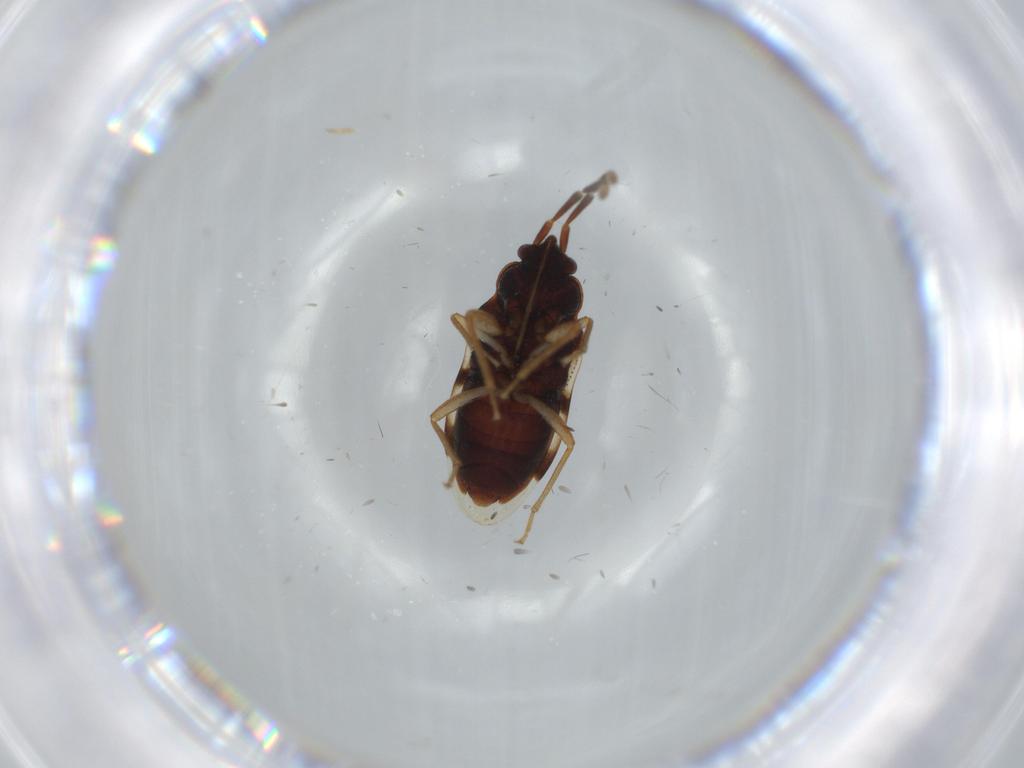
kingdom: Animalia
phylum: Arthropoda
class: Insecta
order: Hemiptera
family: Rhyparochromidae
